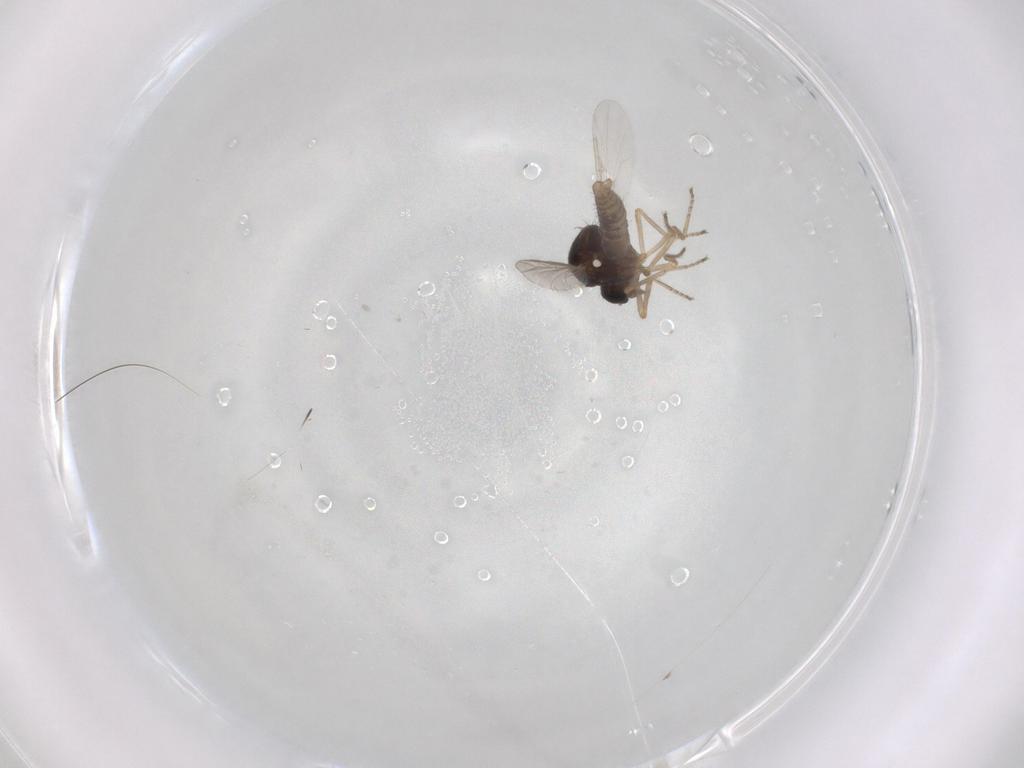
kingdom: Animalia
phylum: Arthropoda
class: Insecta
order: Diptera
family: Ceratopogonidae
